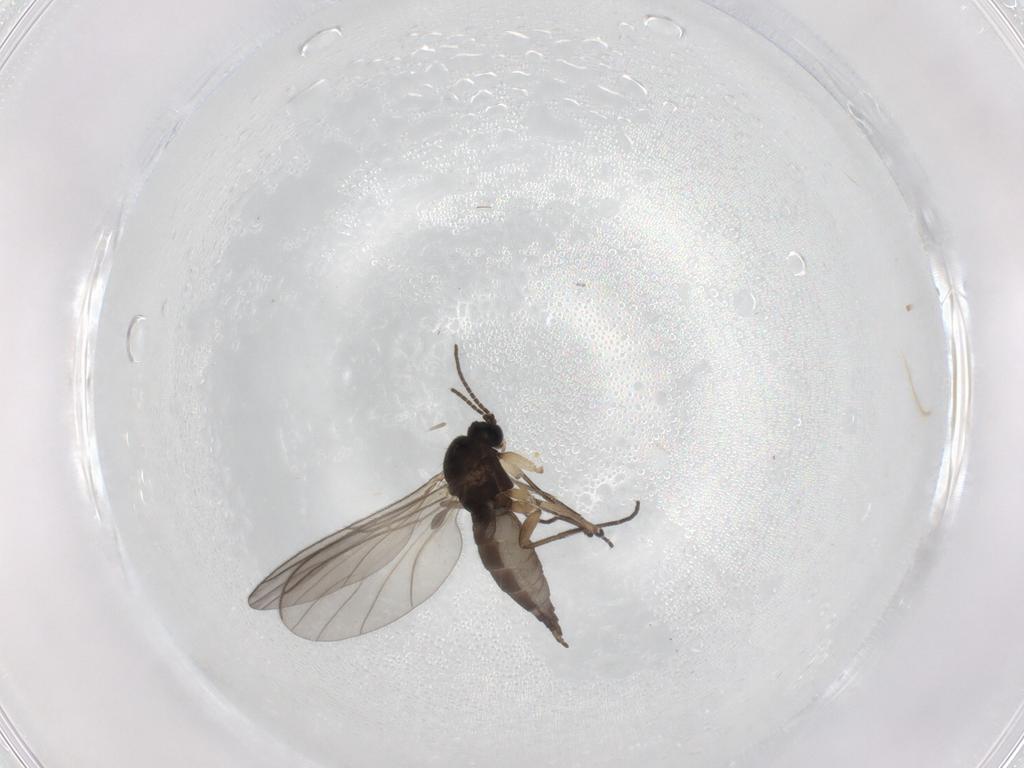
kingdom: Animalia
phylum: Arthropoda
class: Insecta
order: Diptera
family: Sciaridae
